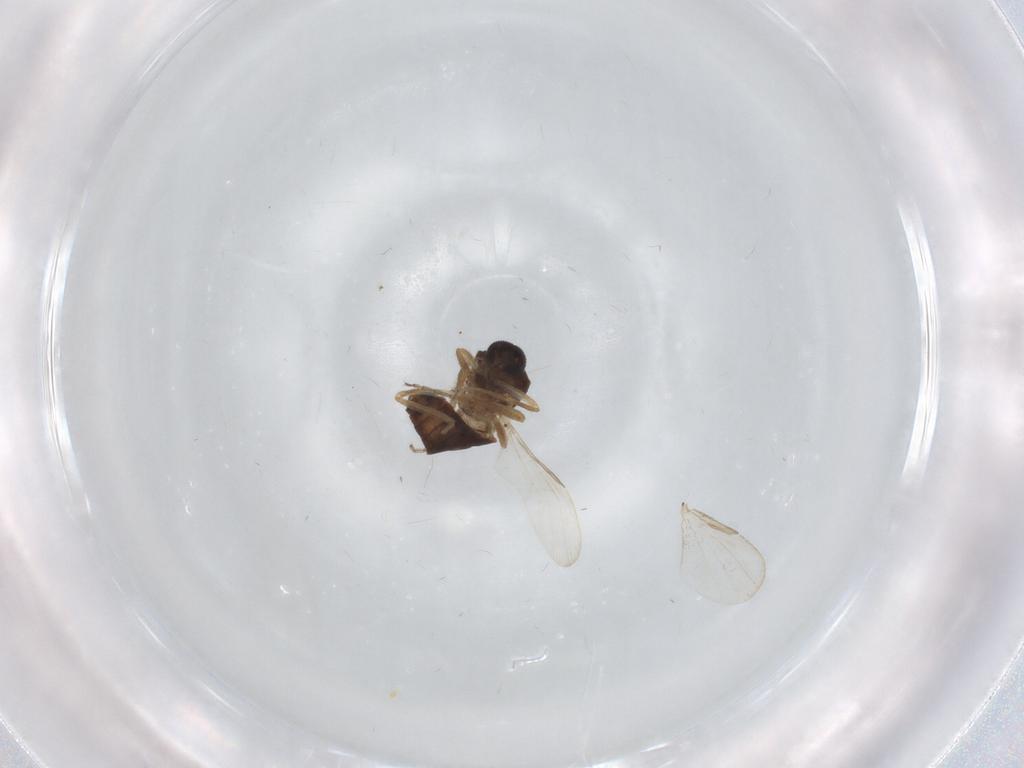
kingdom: Animalia
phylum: Arthropoda
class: Insecta
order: Diptera
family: Ceratopogonidae
